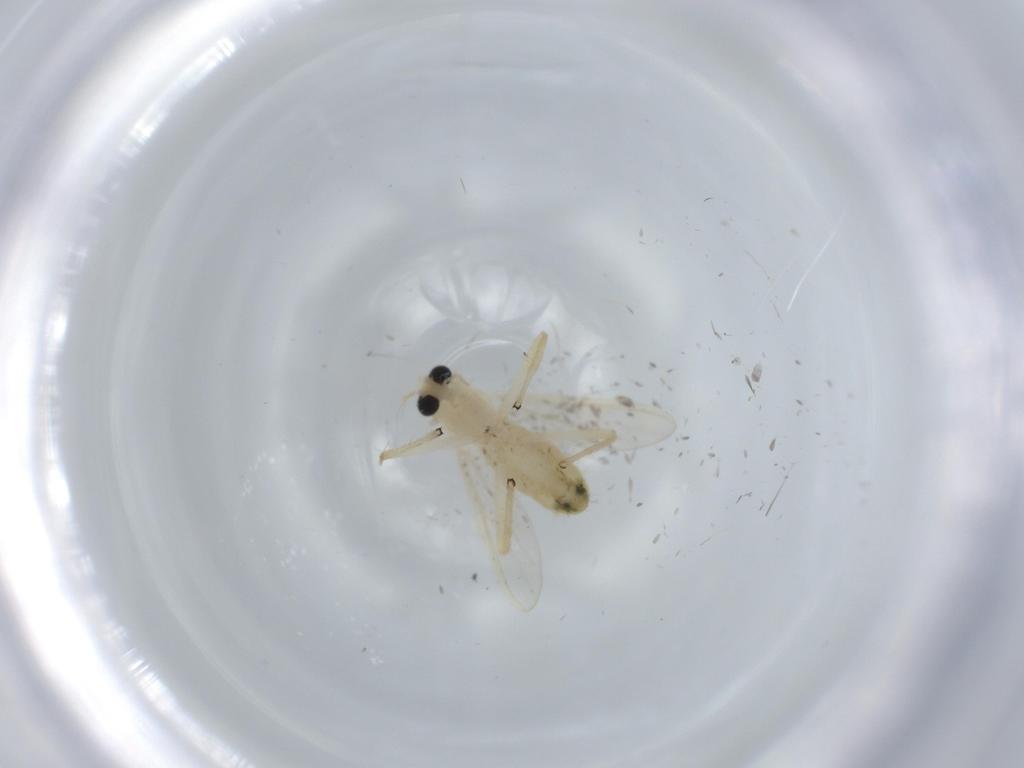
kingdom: Animalia
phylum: Arthropoda
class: Insecta
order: Diptera
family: Chironomidae
